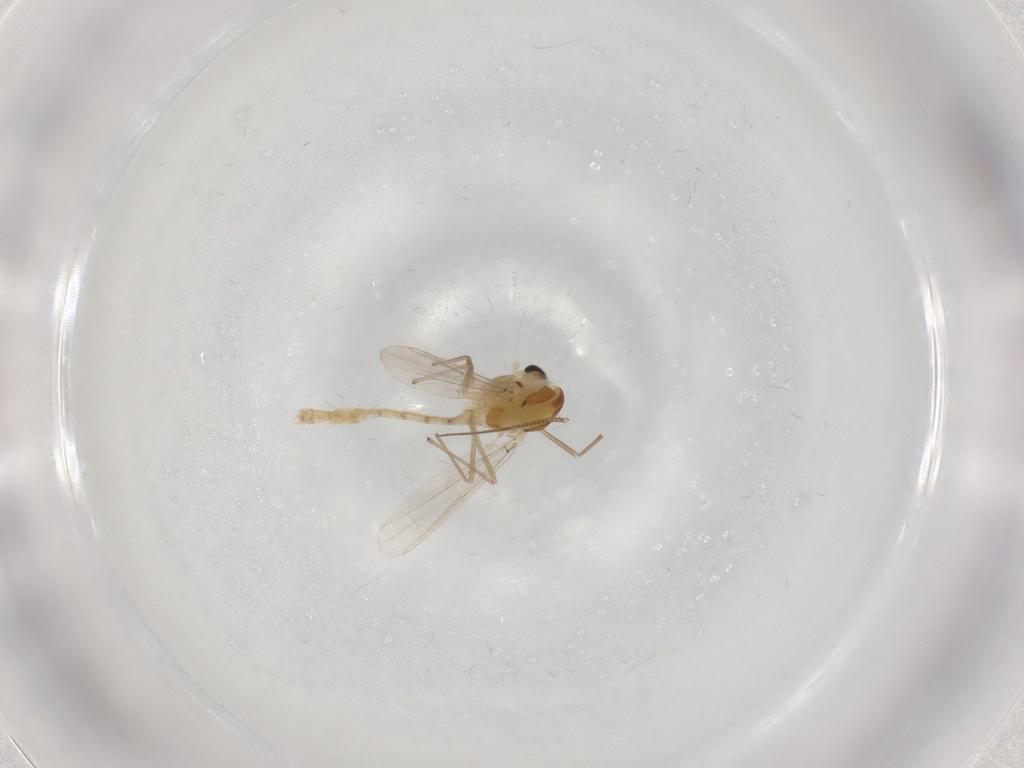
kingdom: Animalia
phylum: Arthropoda
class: Insecta
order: Diptera
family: Chironomidae
